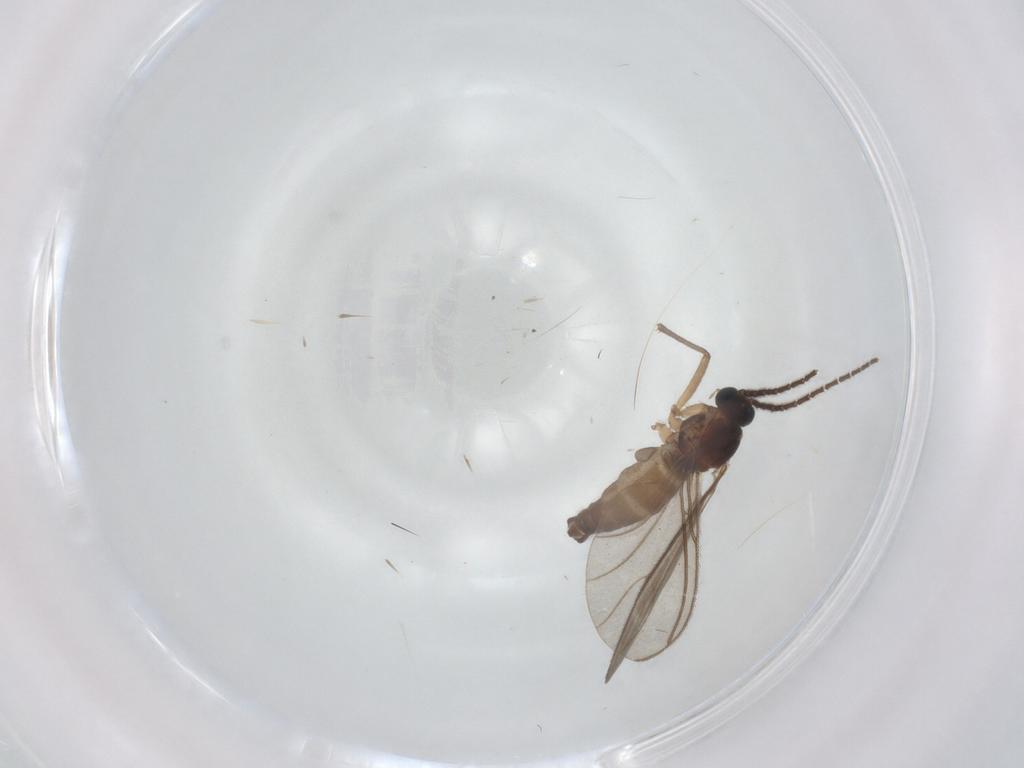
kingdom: Animalia
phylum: Arthropoda
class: Insecta
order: Diptera
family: Sciaridae
